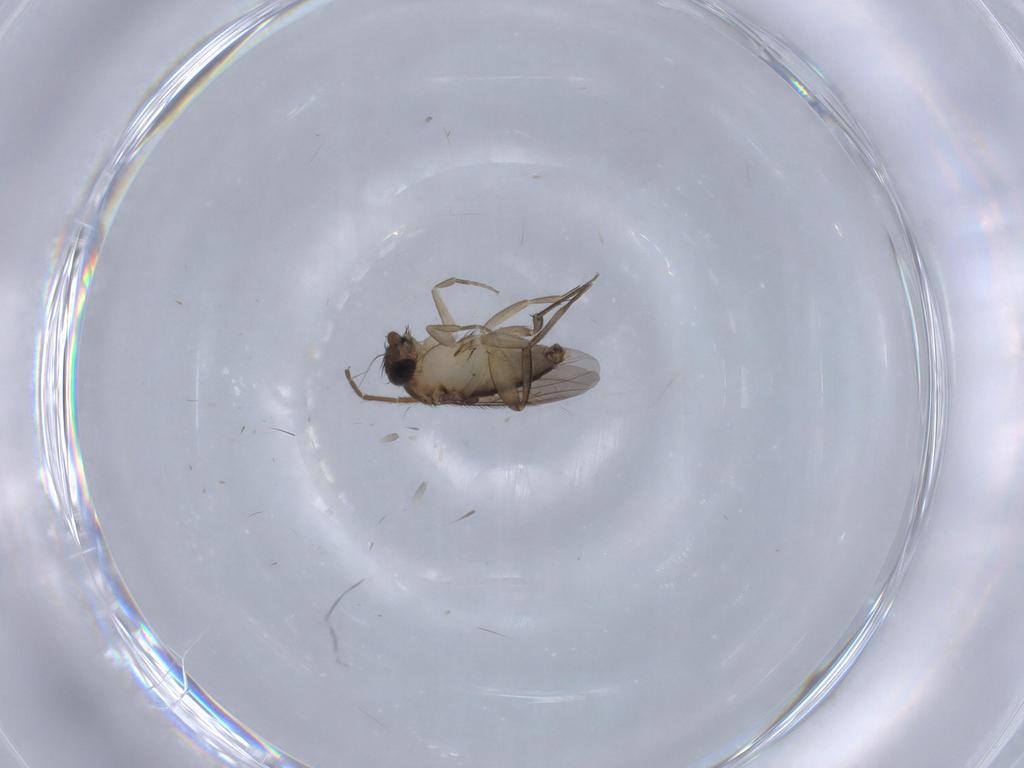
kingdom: Animalia
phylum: Arthropoda
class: Insecta
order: Diptera
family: Phoridae
